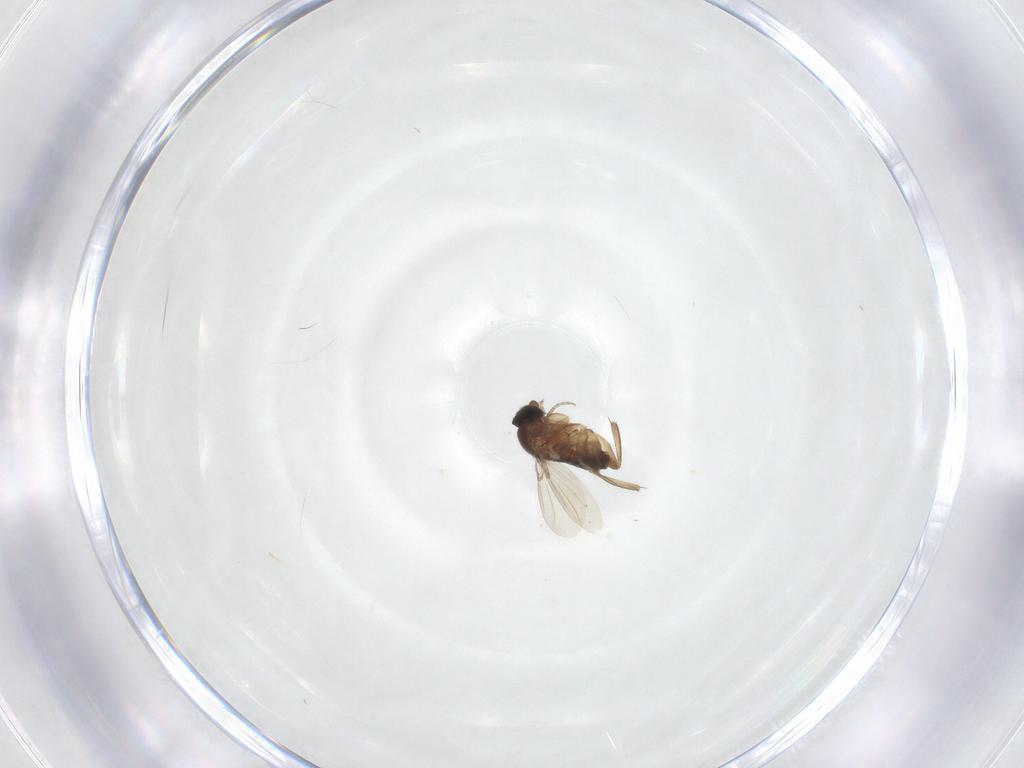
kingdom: Animalia
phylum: Arthropoda
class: Insecta
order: Diptera
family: Phoridae
